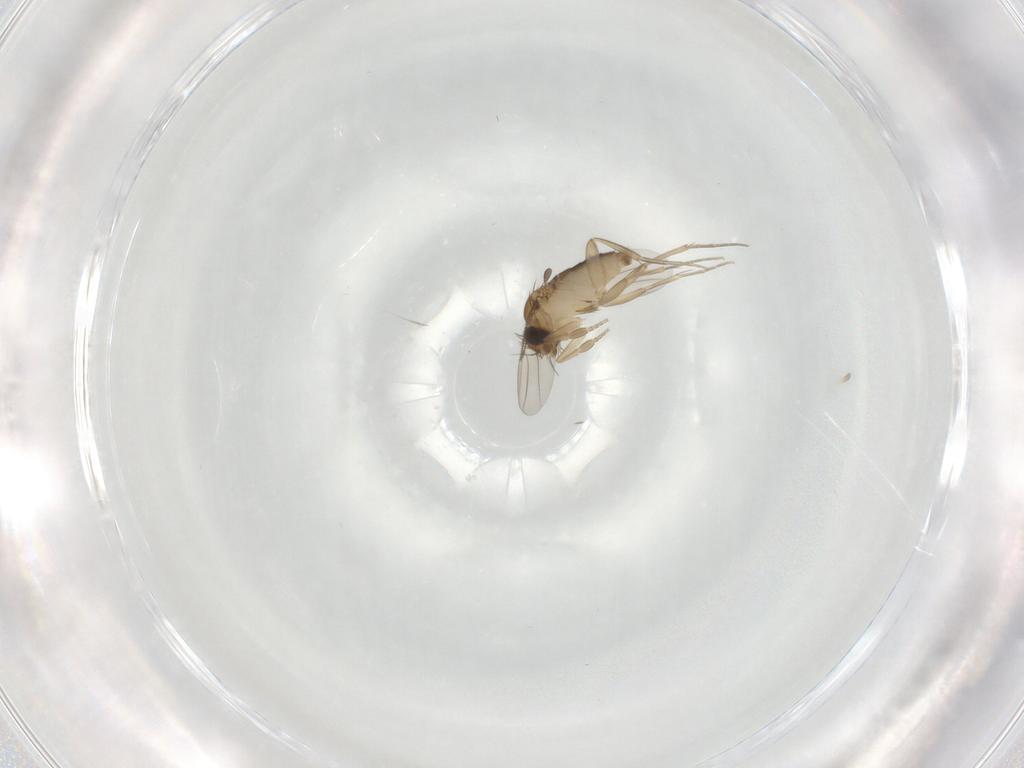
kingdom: Animalia
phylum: Arthropoda
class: Insecta
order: Diptera
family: Phoridae
